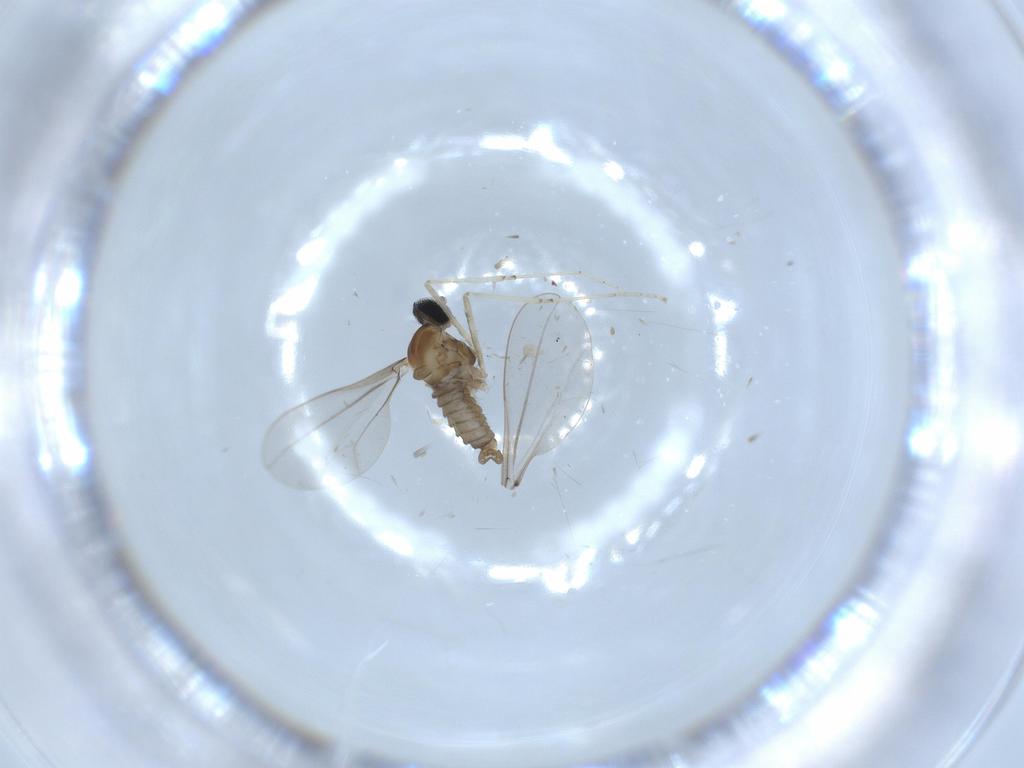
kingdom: Animalia
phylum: Arthropoda
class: Insecta
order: Diptera
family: Cecidomyiidae
